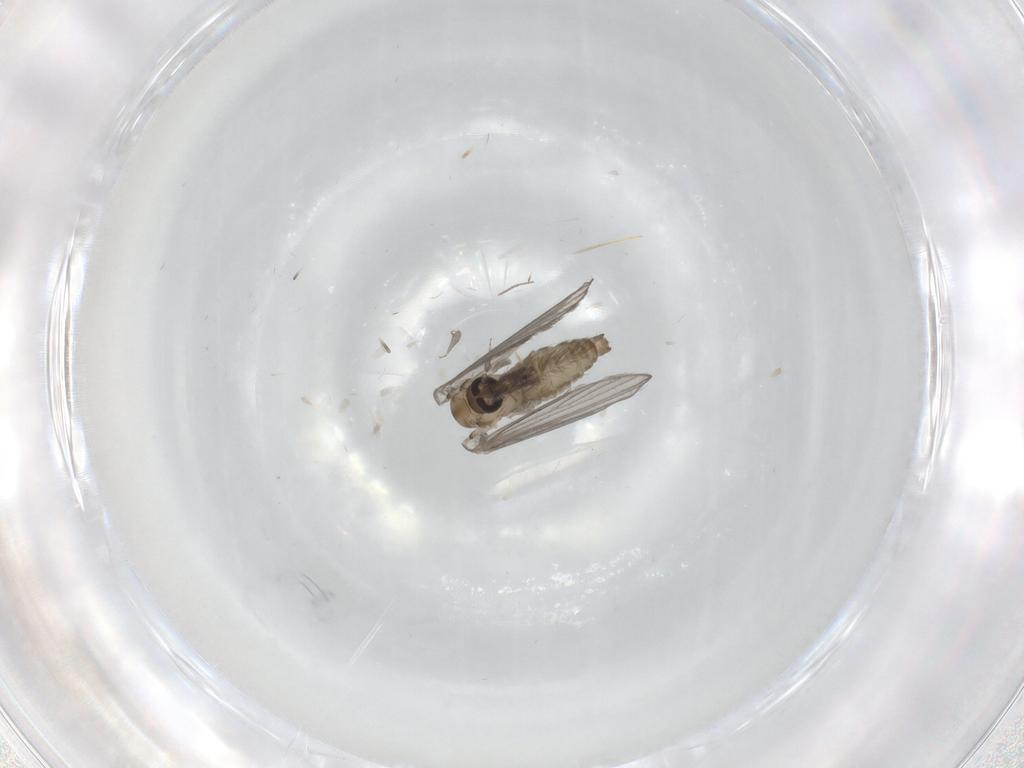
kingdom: Animalia
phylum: Arthropoda
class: Insecta
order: Diptera
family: Psychodidae
